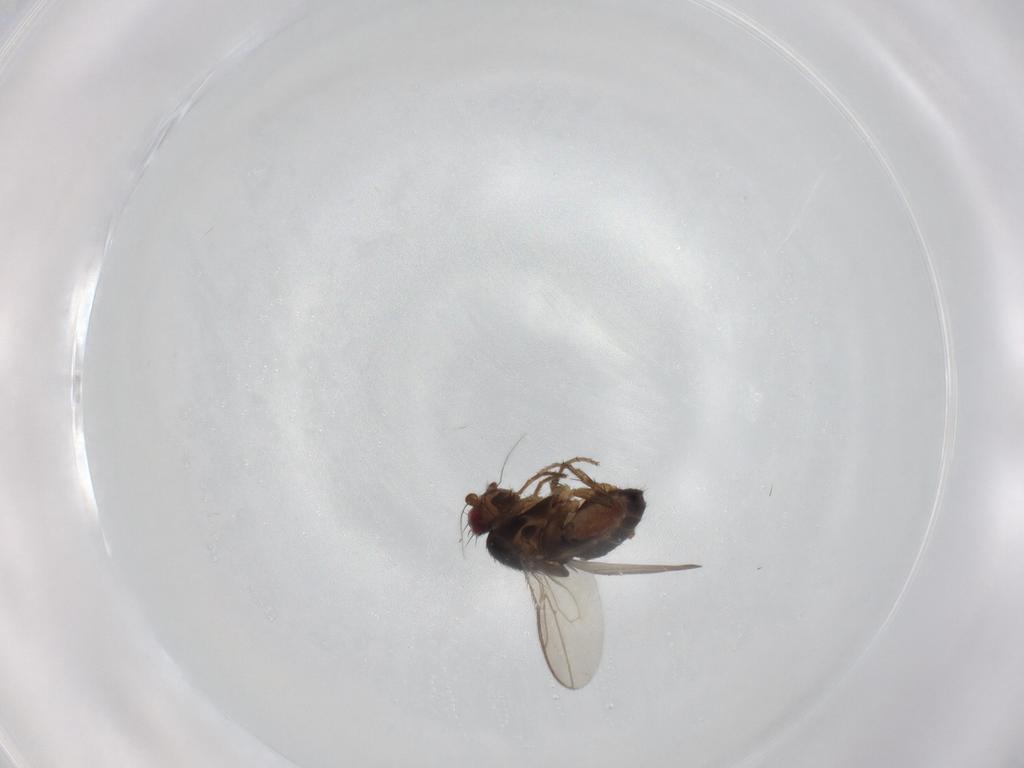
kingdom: Animalia
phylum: Arthropoda
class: Insecta
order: Diptera
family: Sphaeroceridae
